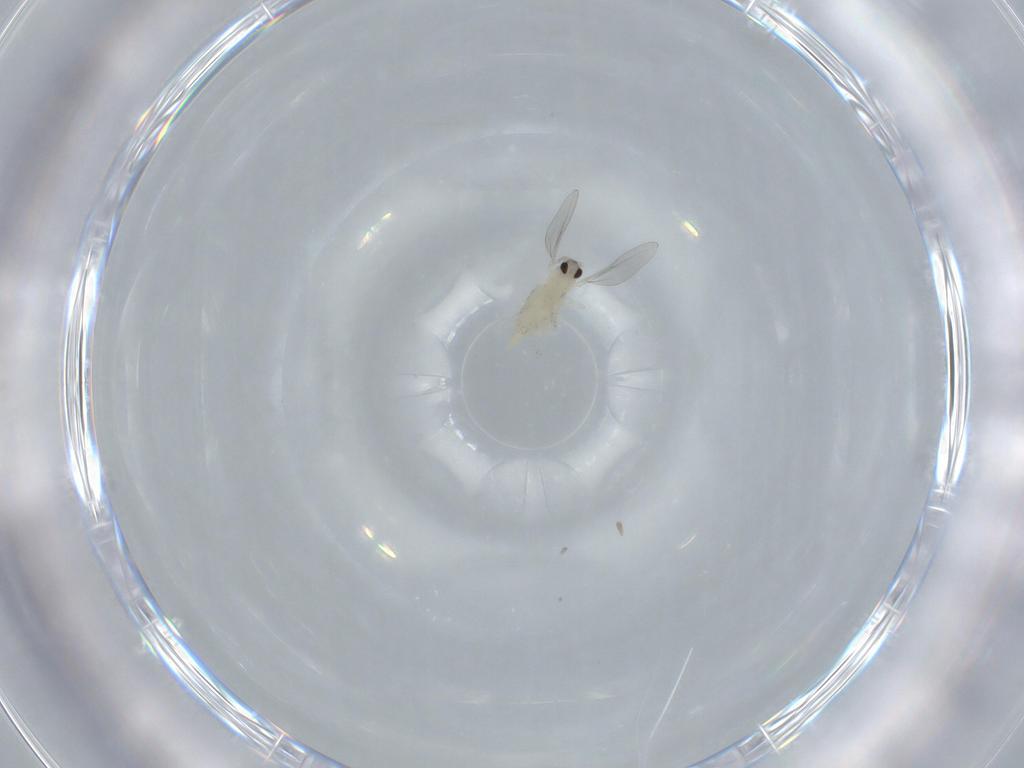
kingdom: Animalia
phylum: Arthropoda
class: Insecta
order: Diptera
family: Cecidomyiidae
